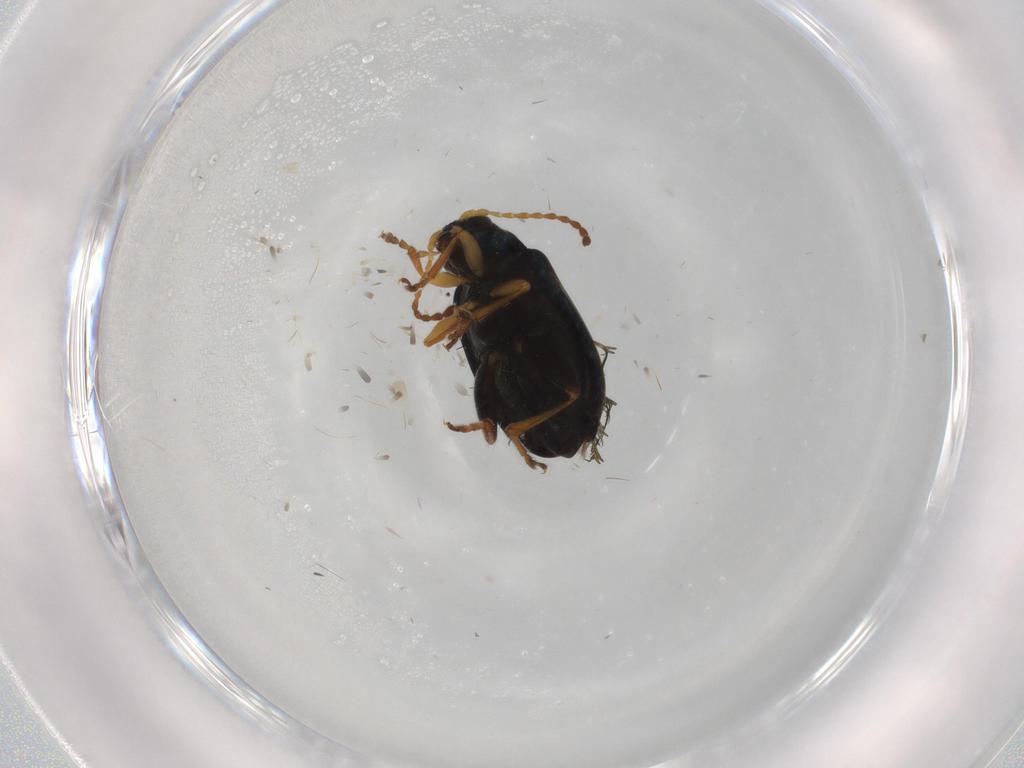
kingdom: Animalia
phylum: Arthropoda
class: Insecta
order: Coleoptera
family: Chrysomelidae
